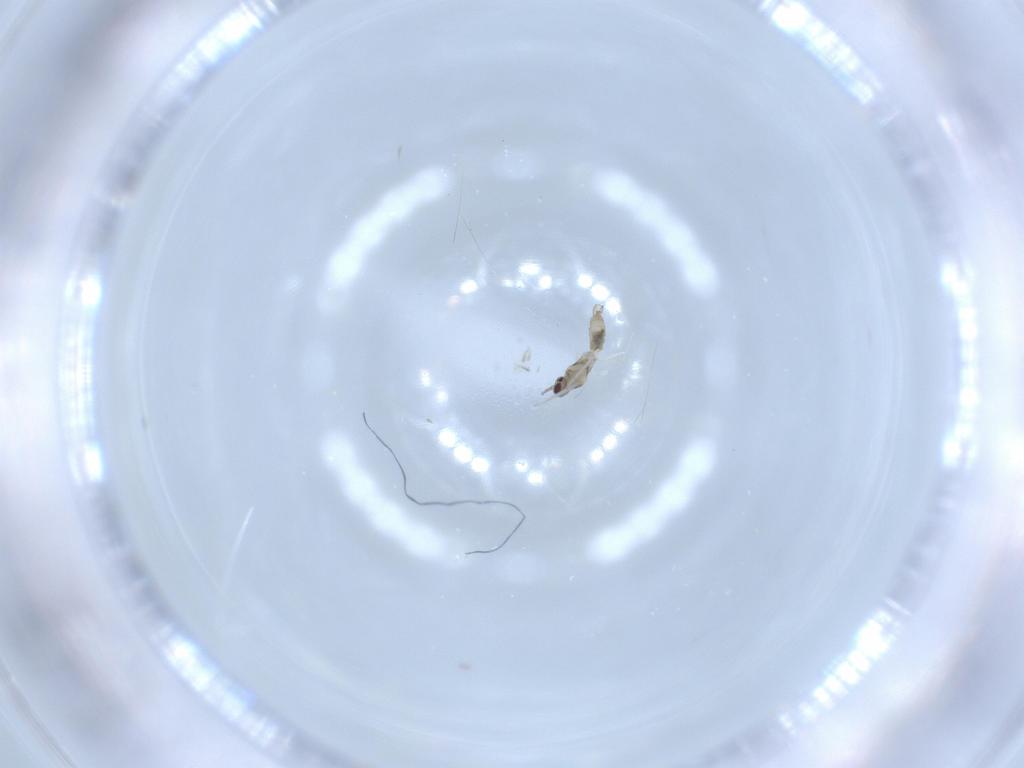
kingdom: Animalia
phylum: Arthropoda
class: Insecta
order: Diptera
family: Cecidomyiidae
